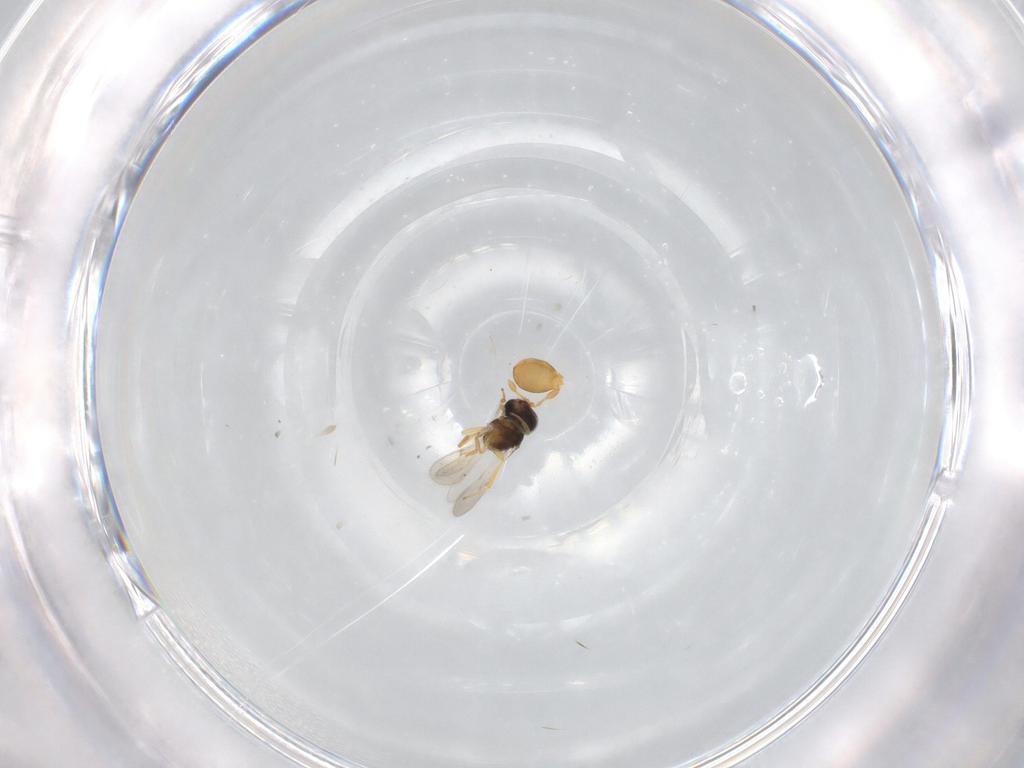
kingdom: Animalia
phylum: Arthropoda
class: Insecta
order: Hymenoptera
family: Scelionidae
